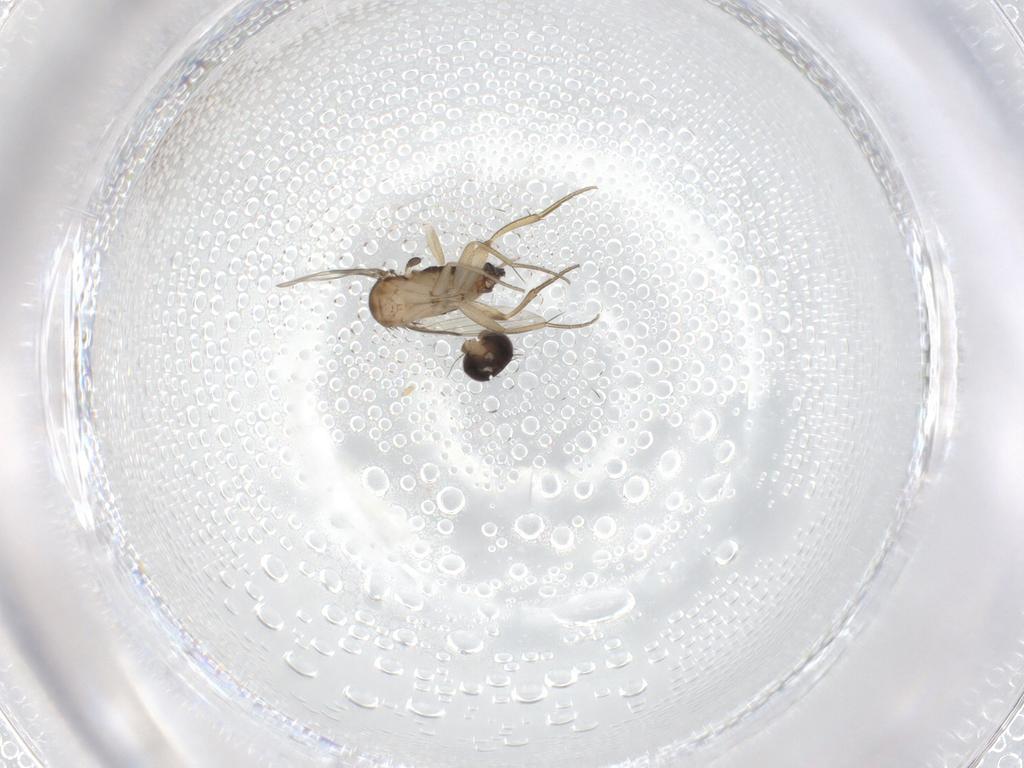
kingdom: Animalia
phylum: Arthropoda
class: Insecta
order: Diptera
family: Phoridae
